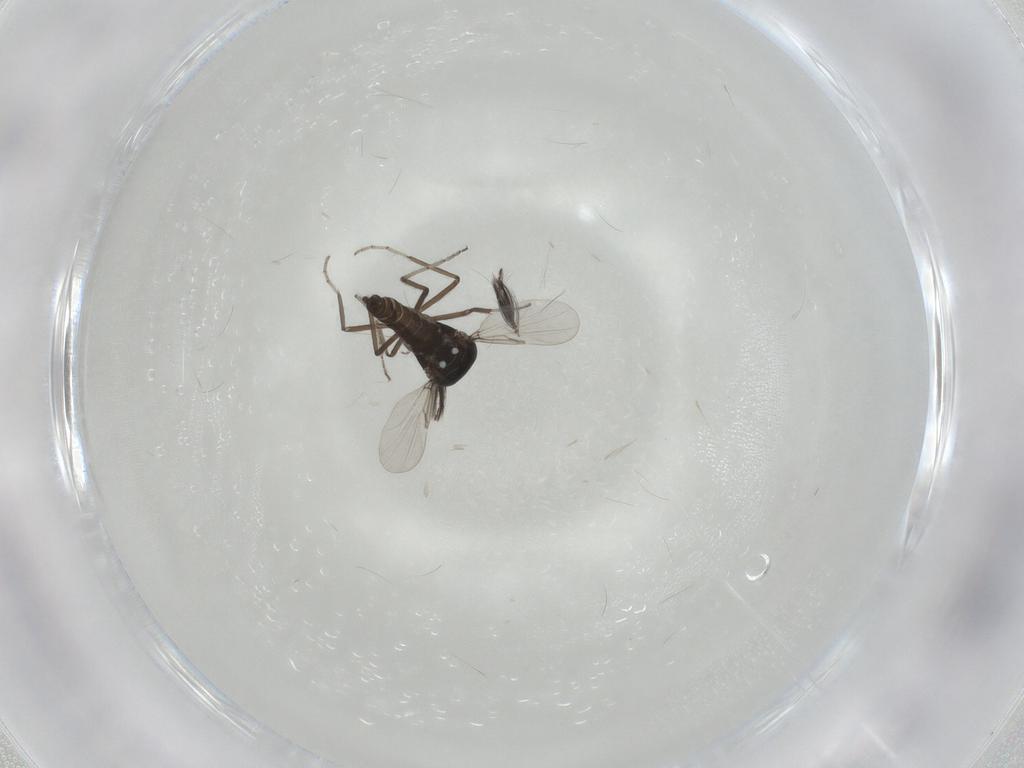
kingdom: Animalia
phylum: Arthropoda
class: Insecta
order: Diptera
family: Ceratopogonidae
